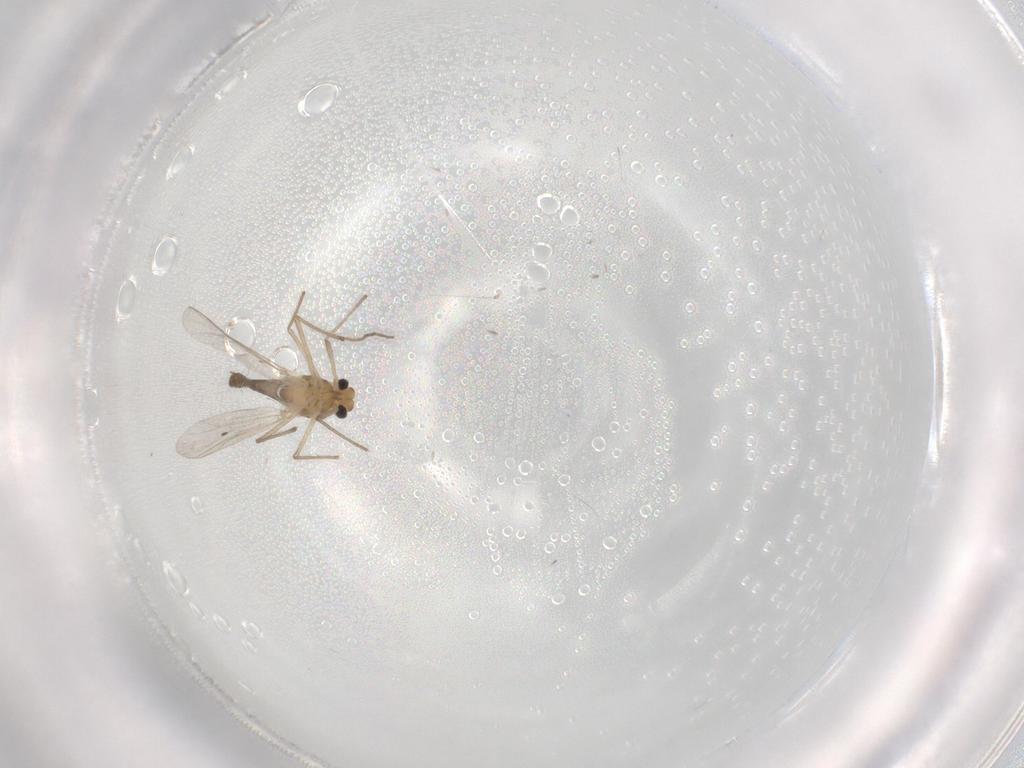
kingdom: Animalia
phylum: Arthropoda
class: Insecta
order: Diptera
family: Chironomidae
